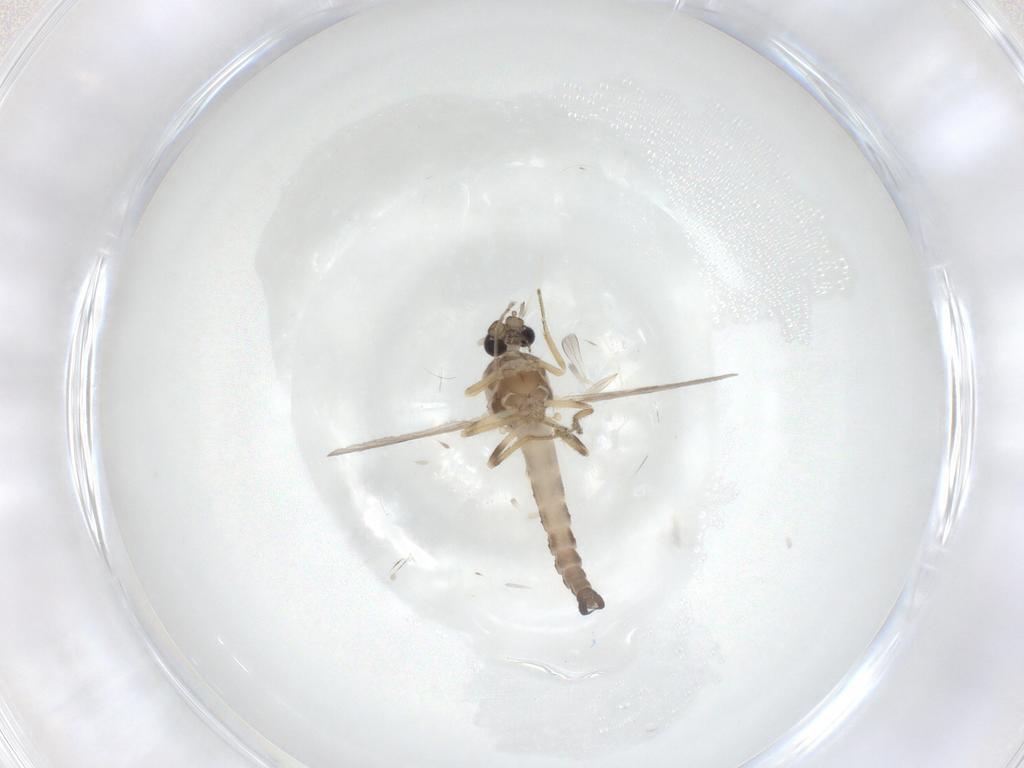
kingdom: Animalia
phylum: Arthropoda
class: Insecta
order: Diptera
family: Ceratopogonidae
